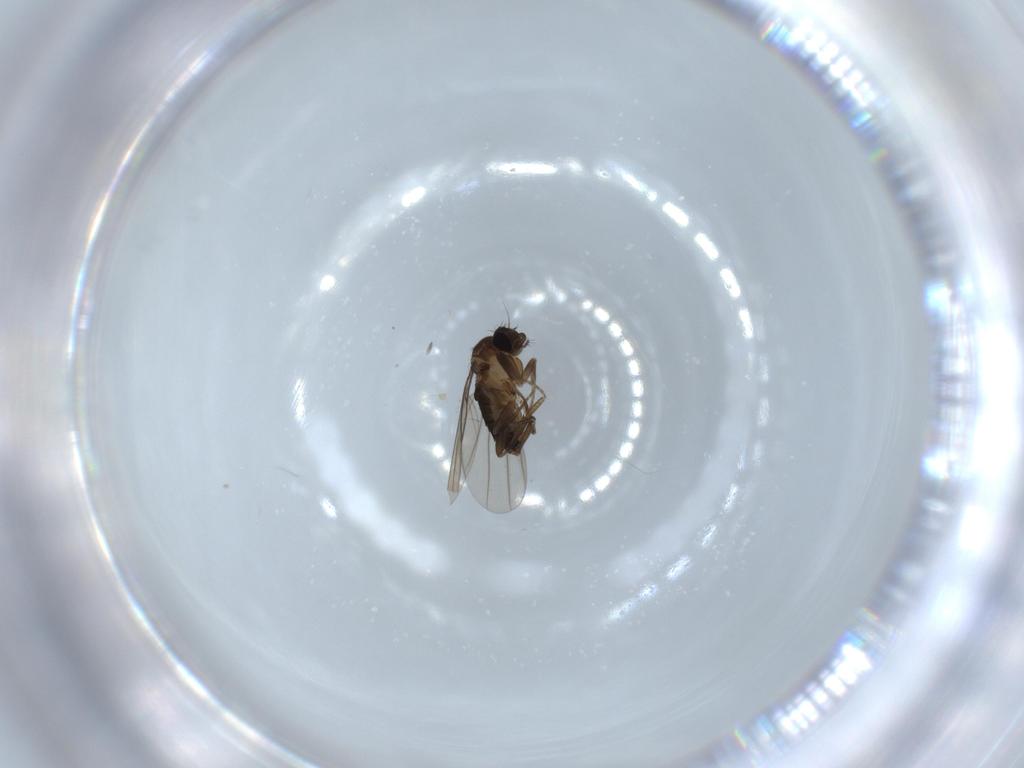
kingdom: Animalia
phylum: Arthropoda
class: Insecta
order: Diptera
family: Phoridae
